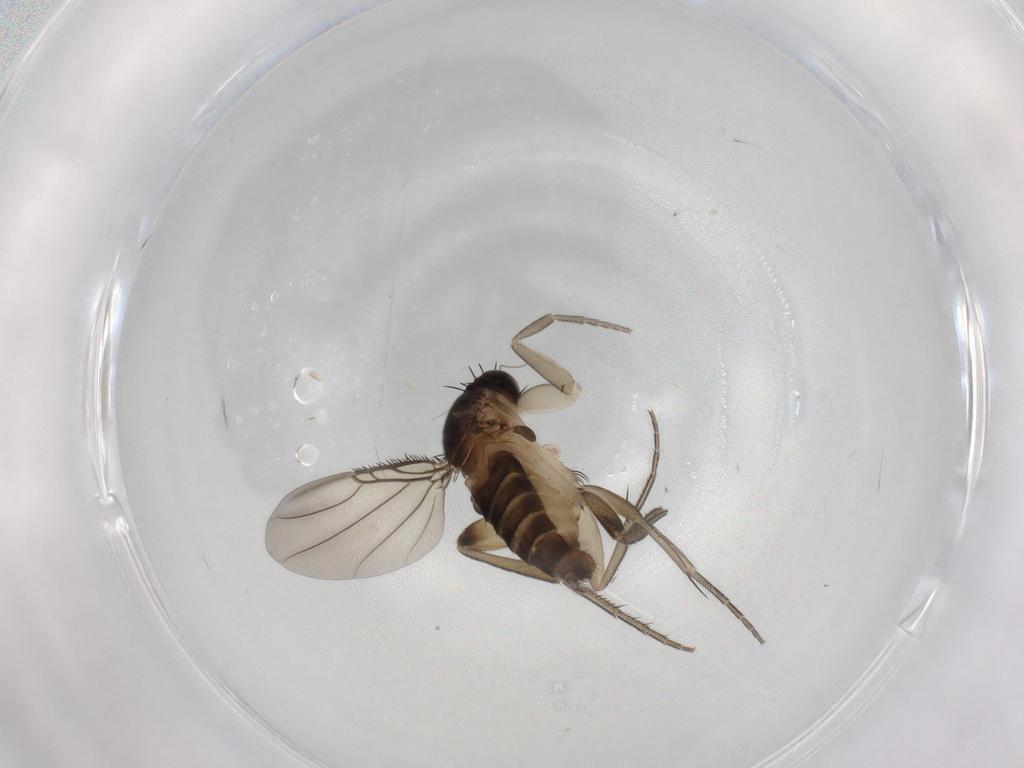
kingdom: Animalia
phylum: Arthropoda
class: Insecta
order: Diptera
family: Phoridae
